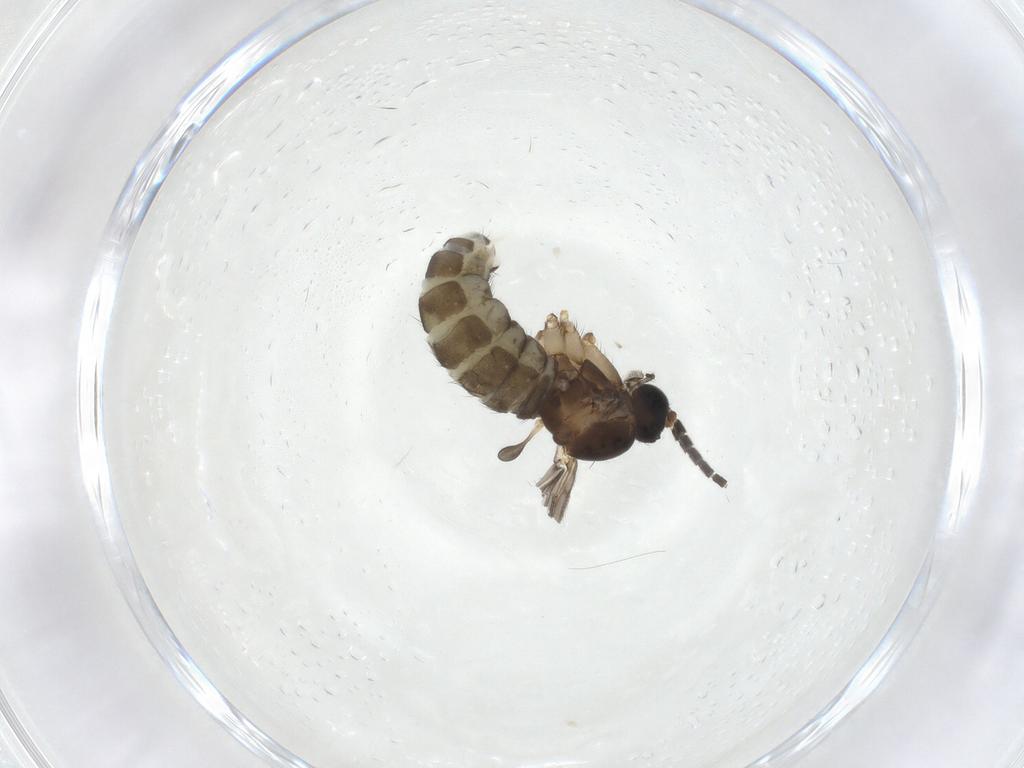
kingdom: Animalia
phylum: Arthropoda
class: Insecta
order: Diptera
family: Sciaridae
